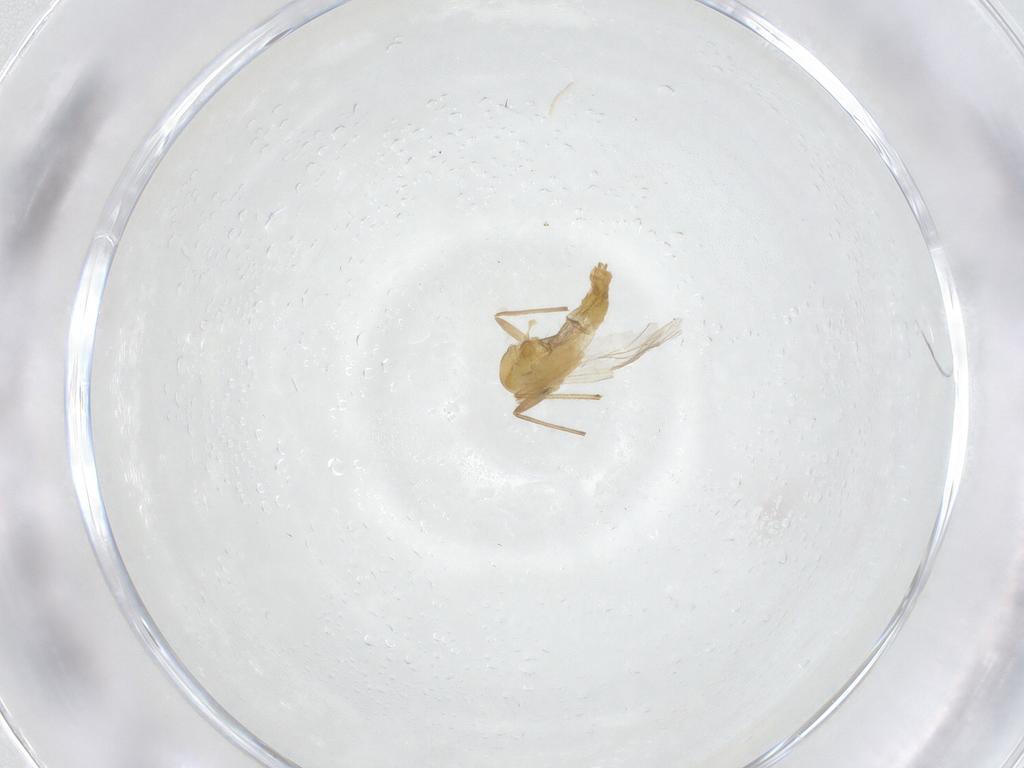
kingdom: Animalia
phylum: Arthropoda
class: Insecta
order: Diptera
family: Chironomidae
